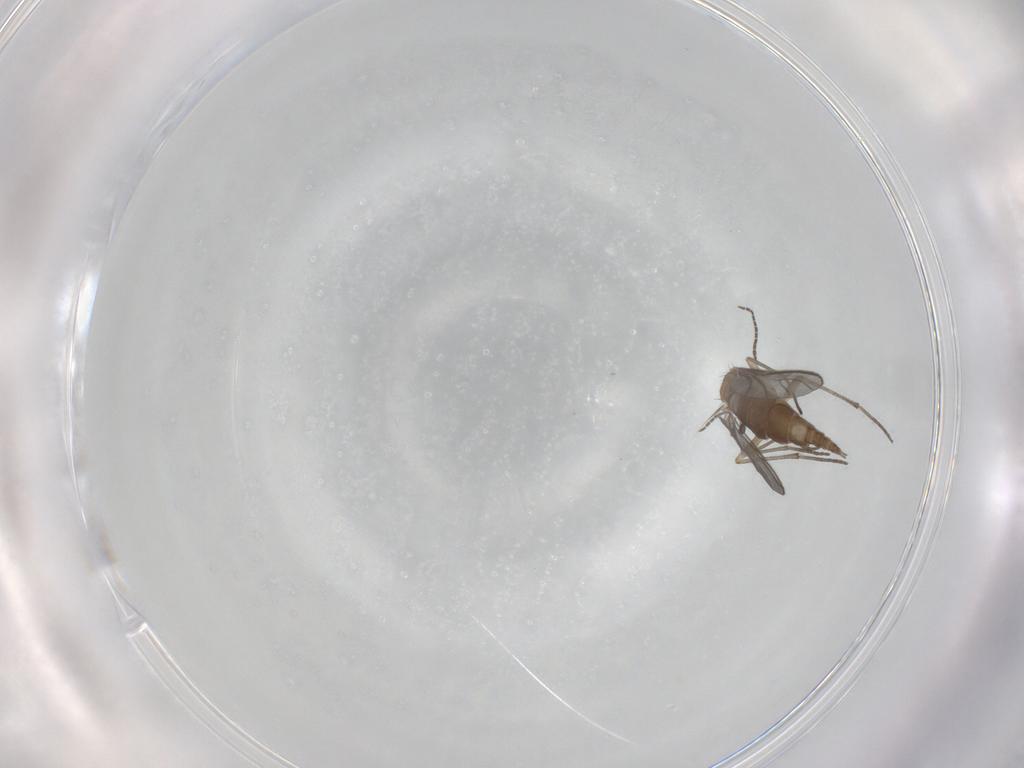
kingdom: Animalia
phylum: Arthropoda
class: Insecta
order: Diptera
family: Sciaridae
